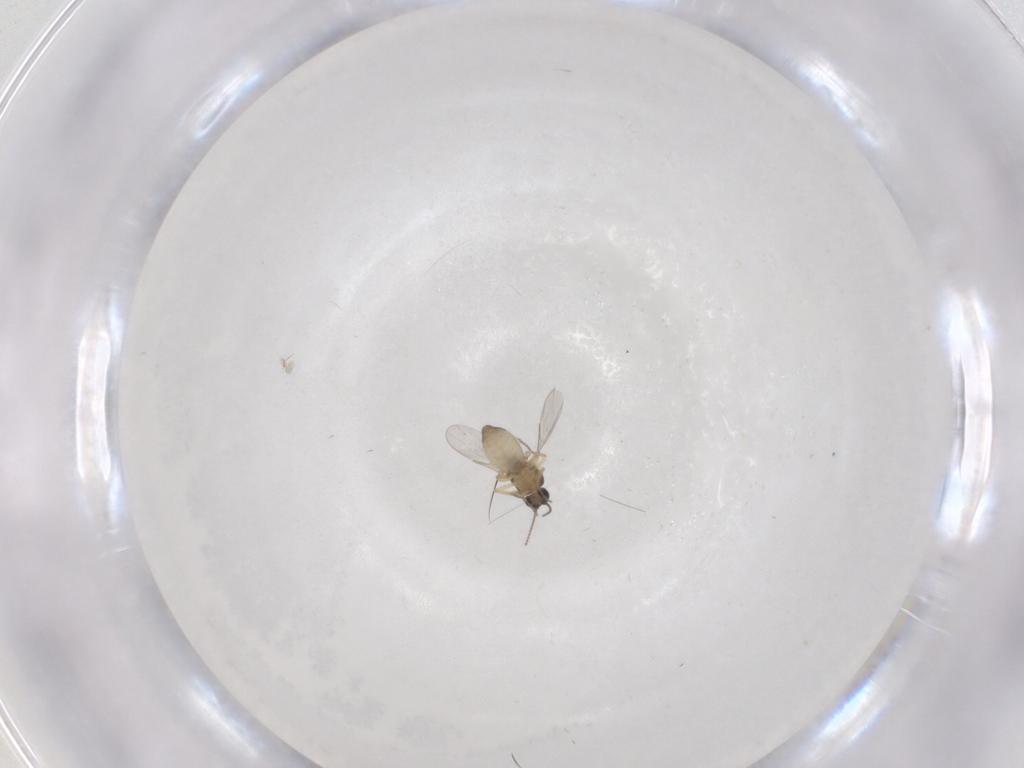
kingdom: Animalia
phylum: Arthropoda
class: Insecta
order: Diptera
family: Ceratopogonidae
